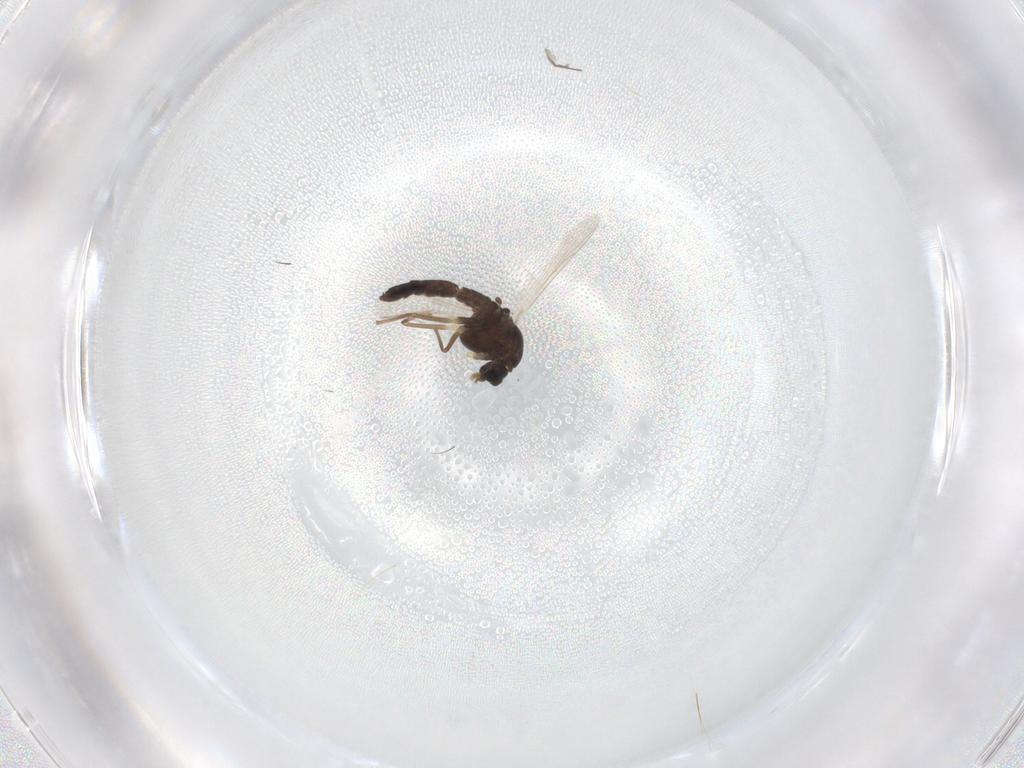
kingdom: Animalia
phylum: Arthropoda
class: Insecta
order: Diptera
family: Sciaridae
